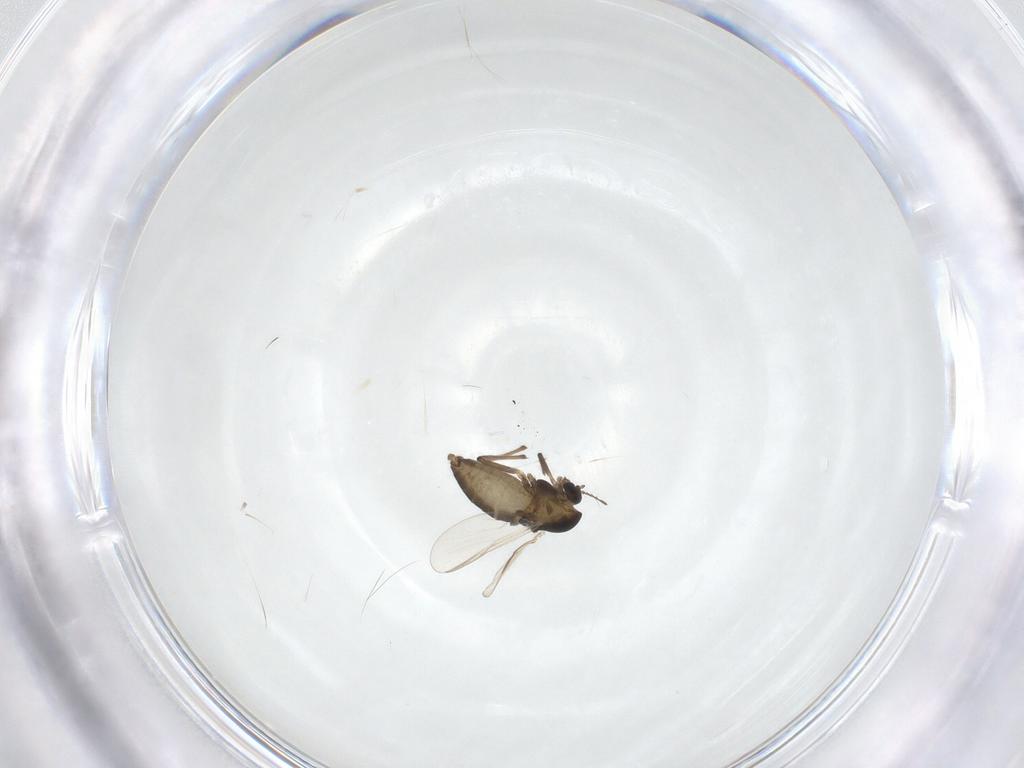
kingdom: Animalia
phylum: Arthropoda
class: Insecta
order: Diptera
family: Chironomidae
